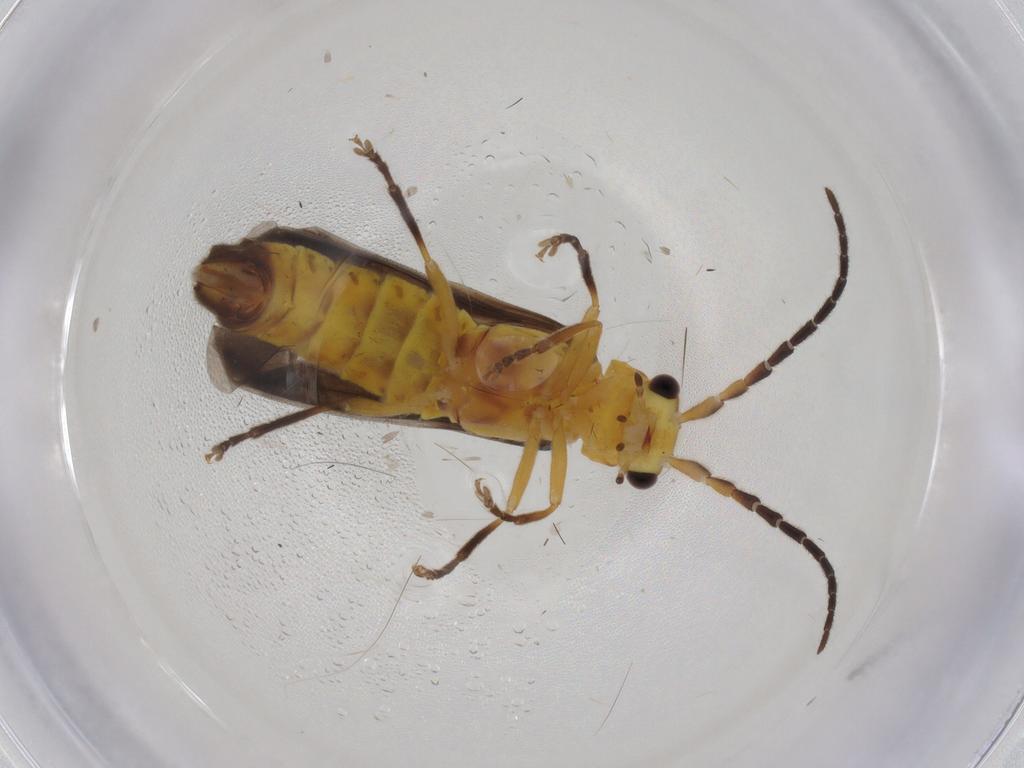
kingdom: Animalia
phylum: Arthropoda
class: Insecta
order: Coleoptera
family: Cantharidae
